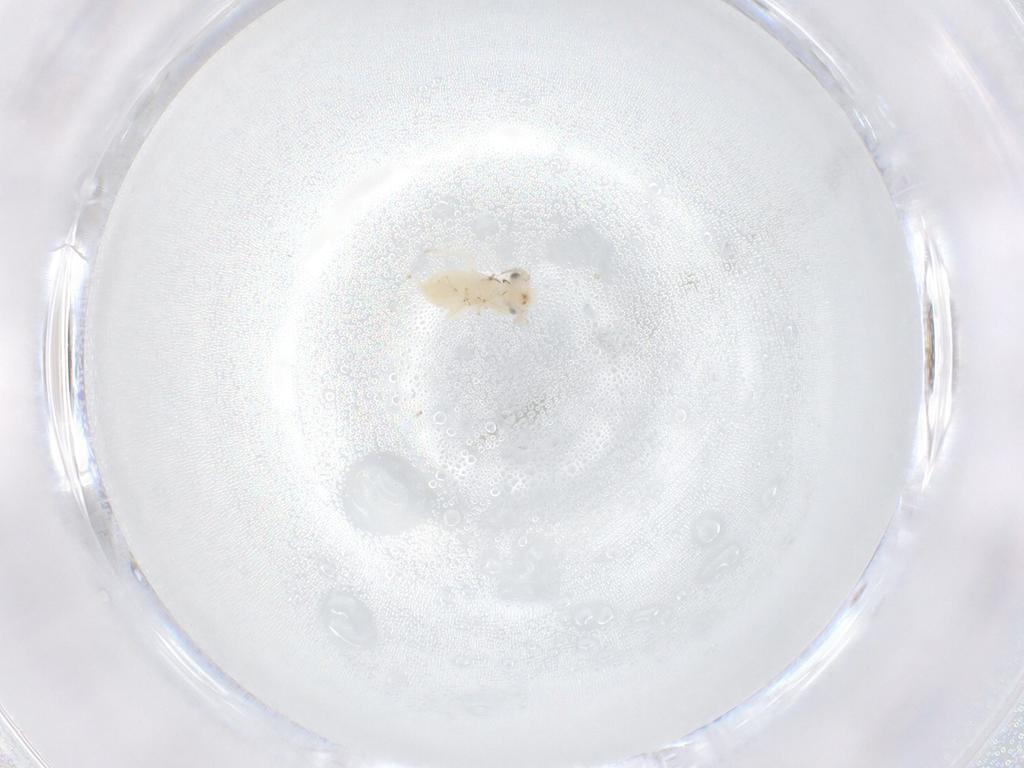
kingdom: Animalia
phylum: Arthropoda
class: Insecta
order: Psocodea
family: Lepidopsocidae
